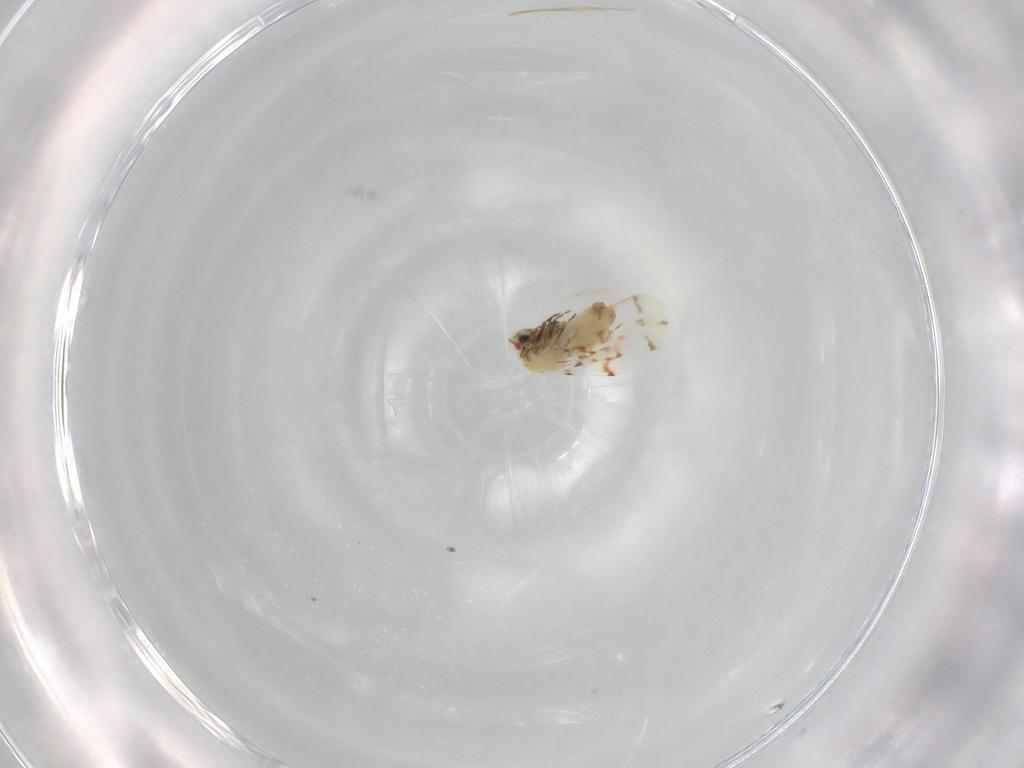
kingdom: Animalia
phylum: Arthropoda
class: Insecta
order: Hemiptera
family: Aleyrodidae
